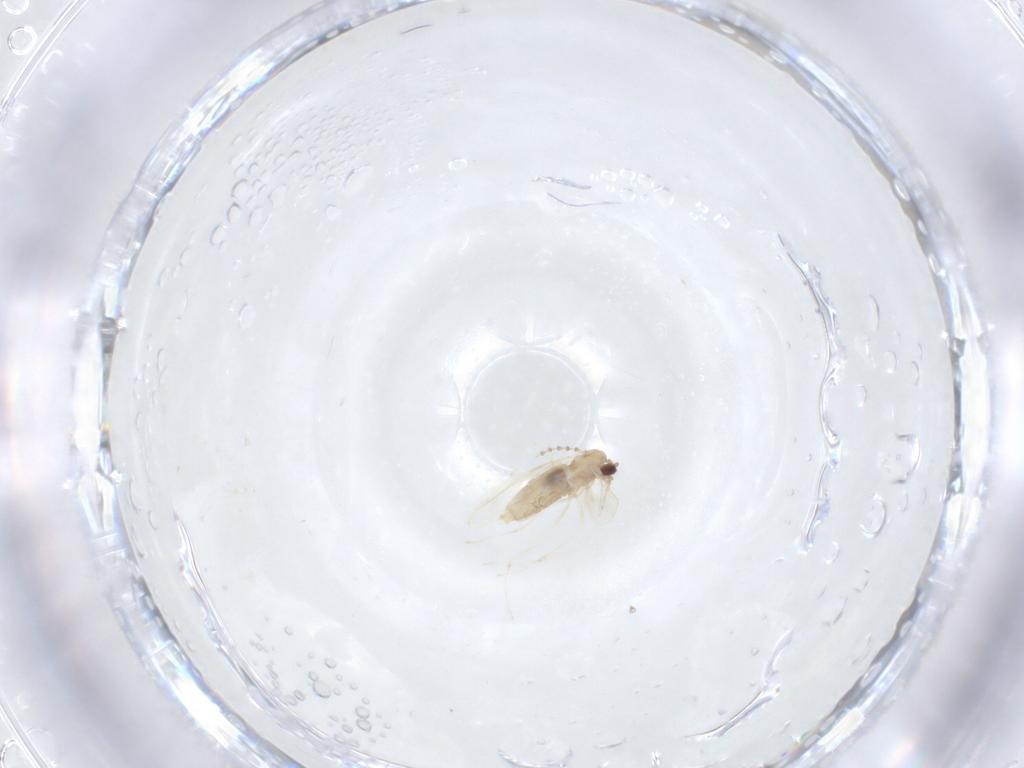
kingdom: Animalia
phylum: Arthropoda
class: Insecta
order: Diptera
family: Cecidomyiidae
